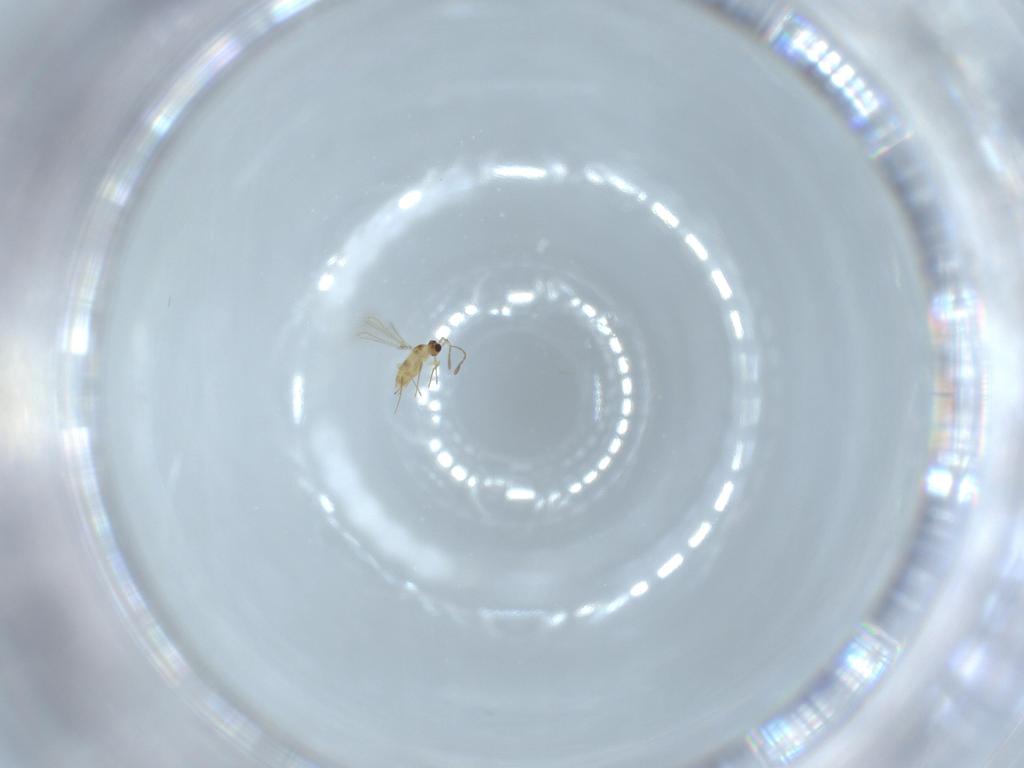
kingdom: Animalia
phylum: Arthropoda
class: Insecta
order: Hymenoptera
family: Mymaridae
